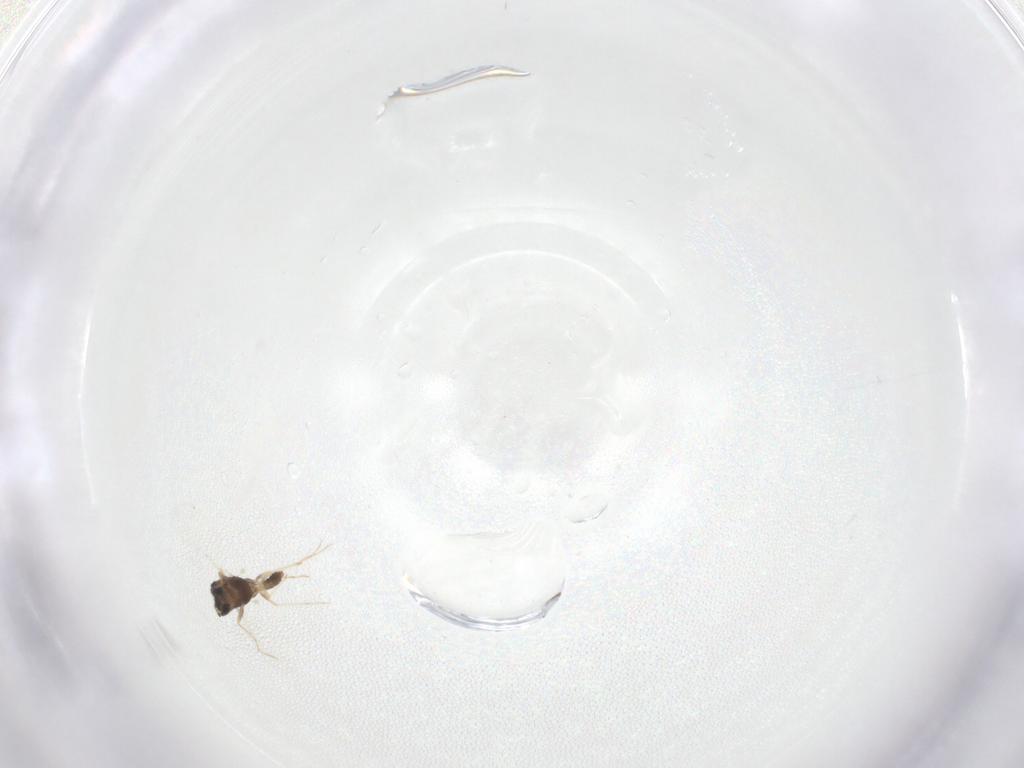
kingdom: Animalia
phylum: Arthropoda
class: Insecta
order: Diptera
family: Chironomidae
